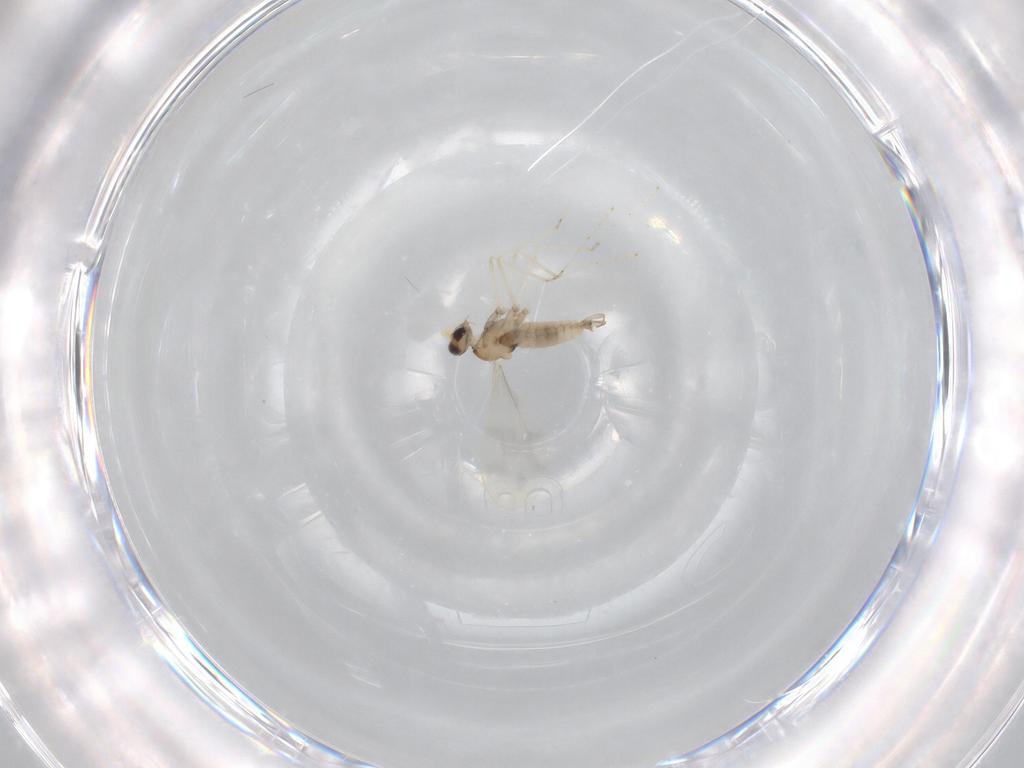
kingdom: Animalia
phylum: Arthropoda
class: Insecta
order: Diptera
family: Cecidomyiidae
